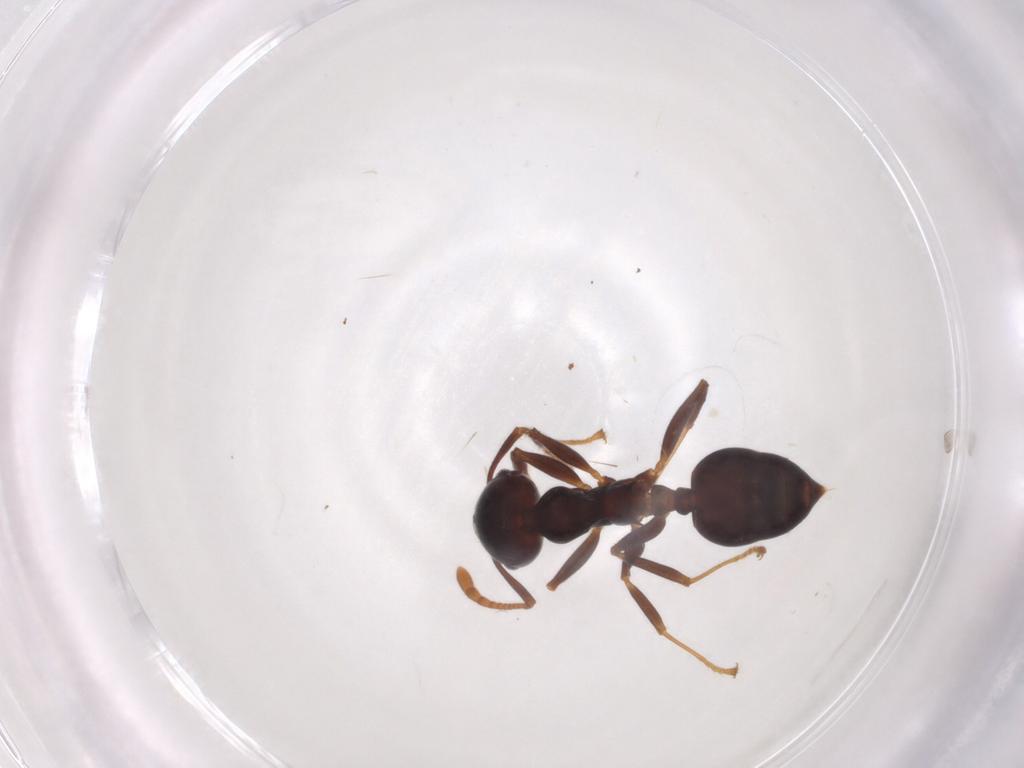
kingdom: Animalia
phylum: Arthropoda
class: Insecta
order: Hymenoptera
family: Formicidae
